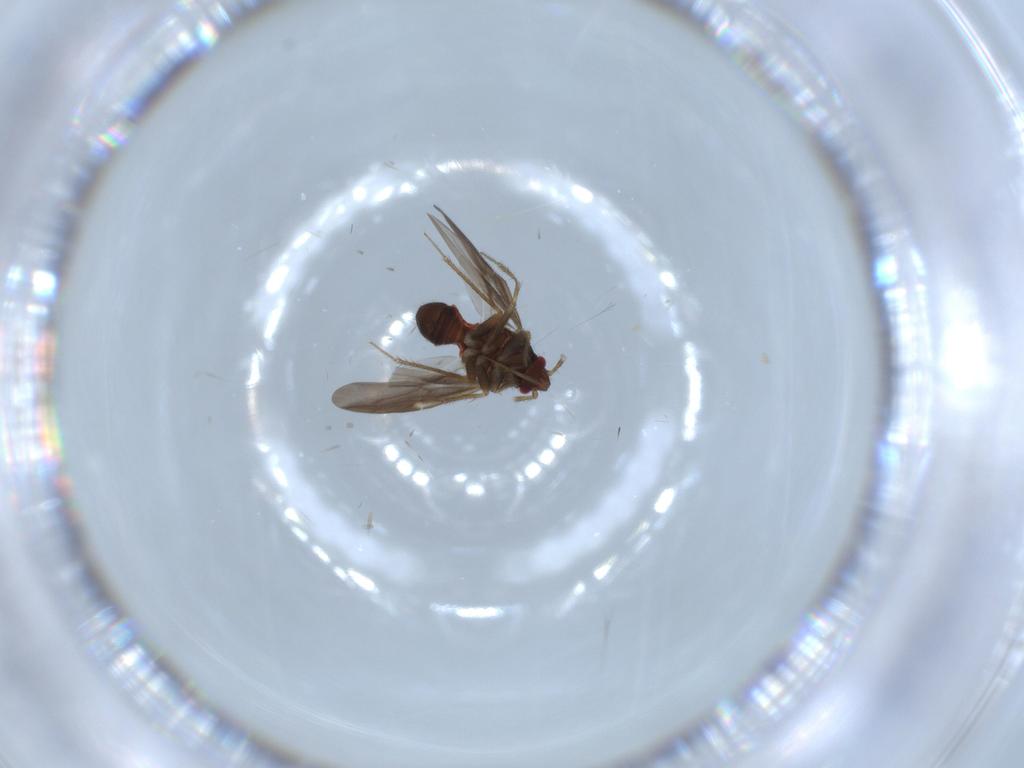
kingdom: Animalia
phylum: Arthropoda
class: Insecta
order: Hemiptera
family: Ceratocombidae
